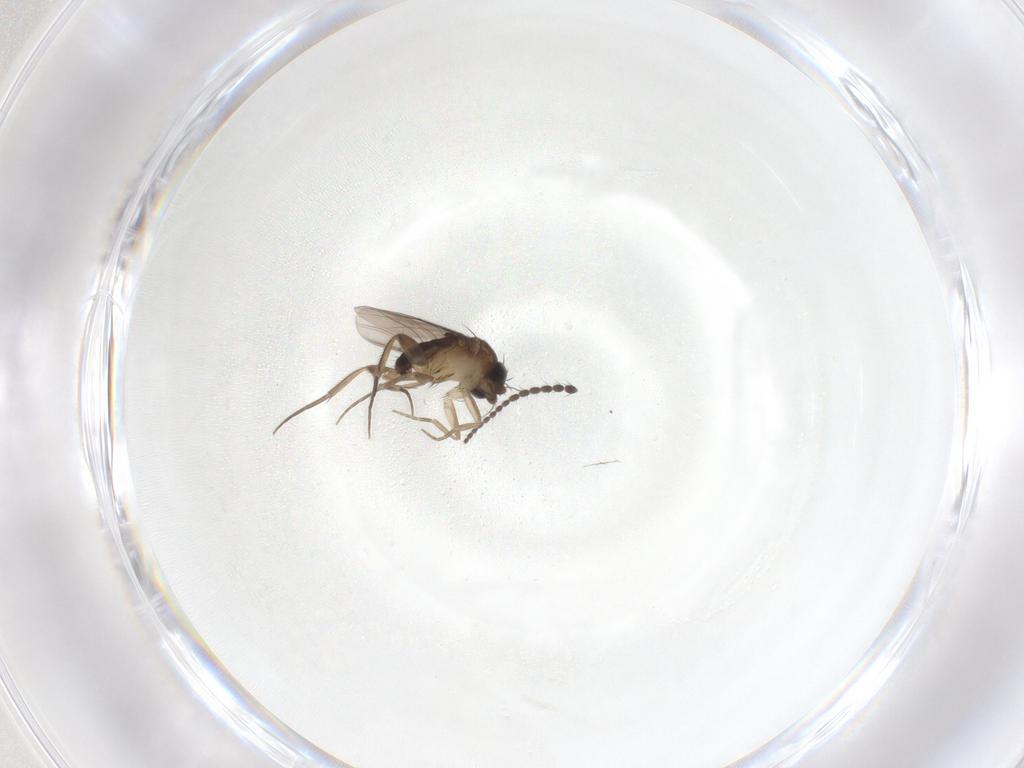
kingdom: Animalia
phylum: Arthropoda
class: Insecta
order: Diptera
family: Phoridae
